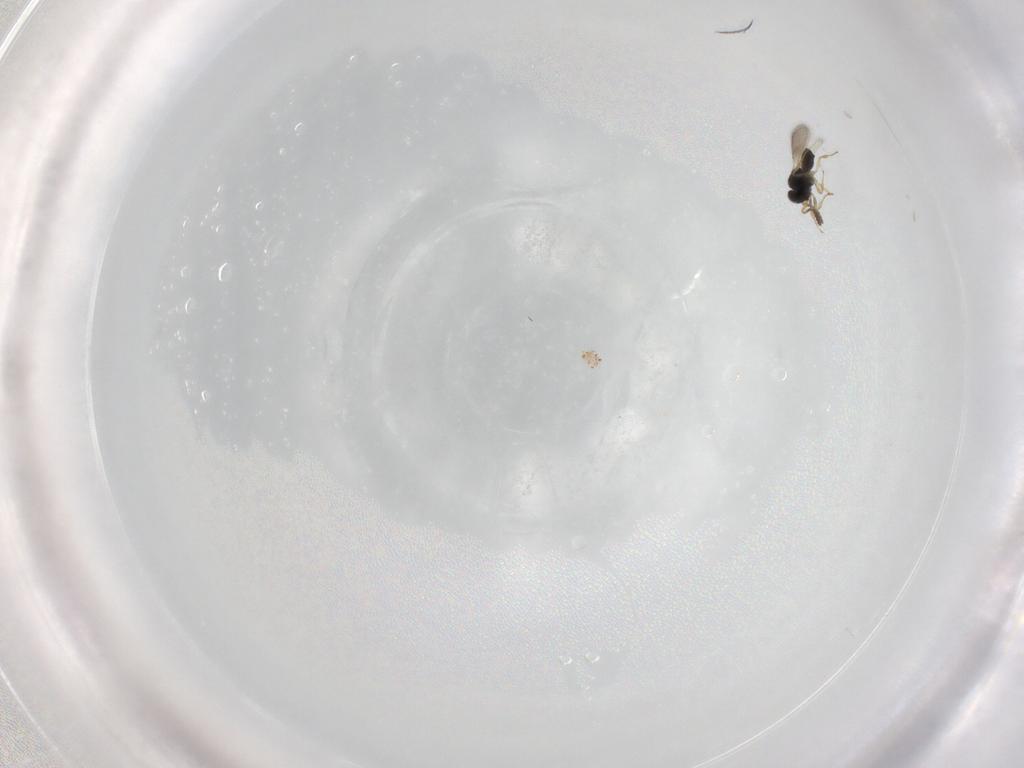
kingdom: Animalia
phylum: Arthropoda
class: Insecta
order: Hymenoptera
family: Scelionidae
